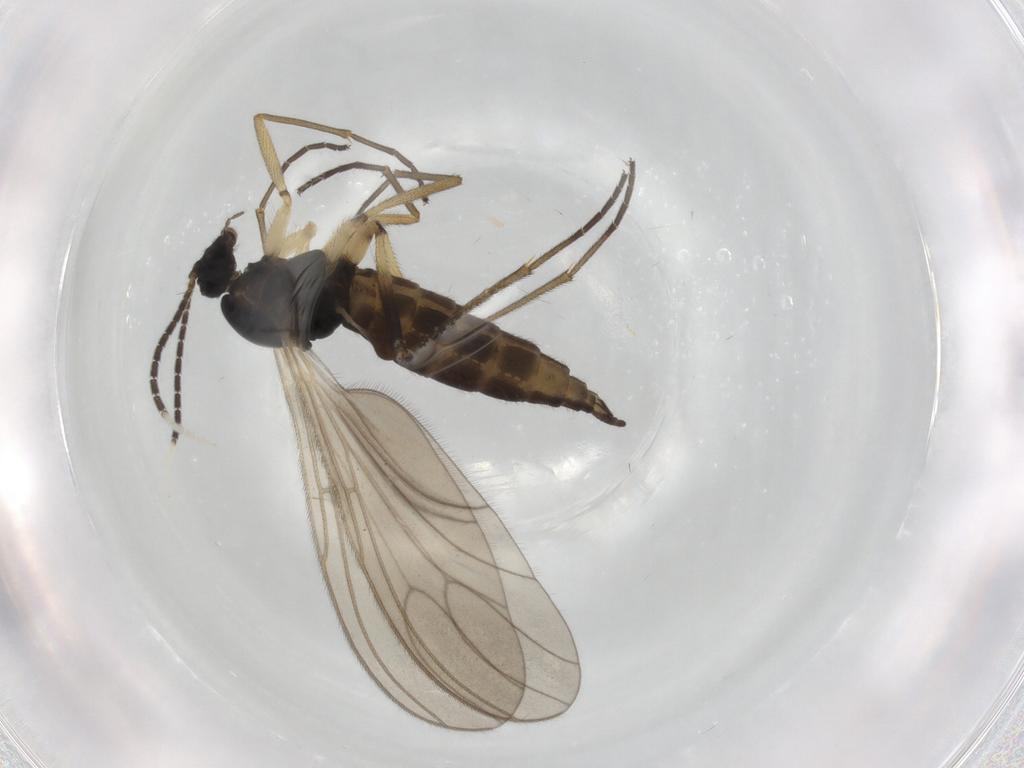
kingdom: Animalia
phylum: Arthropoda
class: Insecta
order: Diptera
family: Sciaridae
